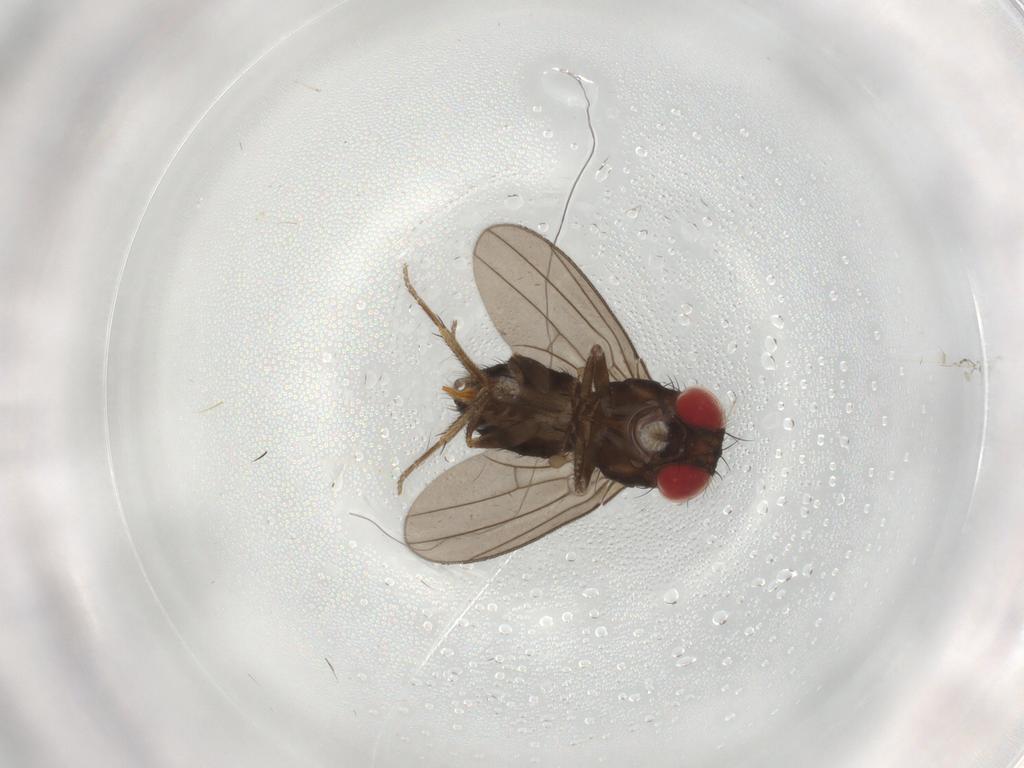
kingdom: Animalia
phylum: Arthropoda
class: Insecta
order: Diptera
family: Drosophilidae
